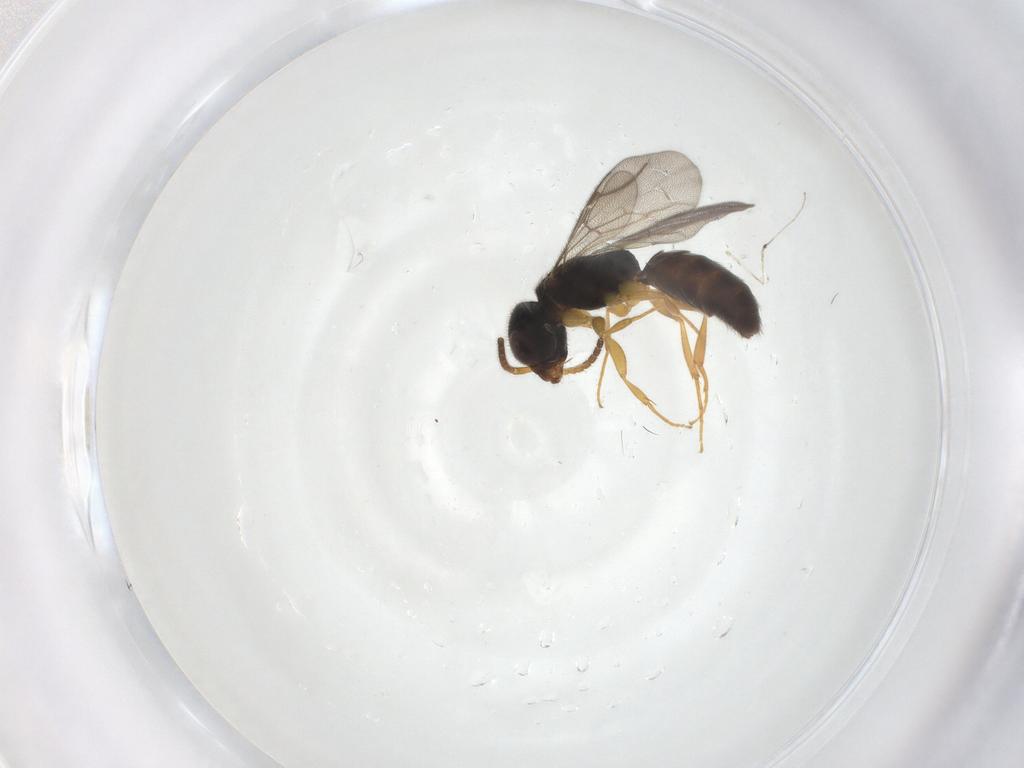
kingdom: Animalia
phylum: Arthropoda
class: Insecta
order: Hymenoptera
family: Bethylidae
